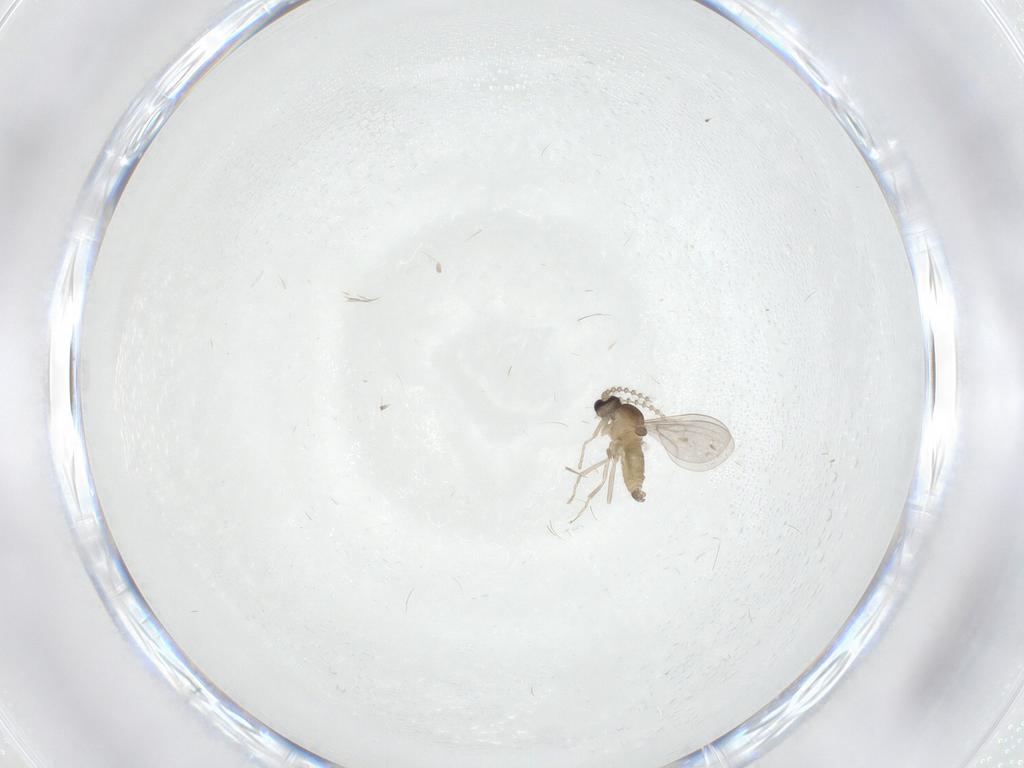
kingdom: Animalia
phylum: Arthropoda
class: Insecta
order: Diptera
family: Cecidomyiidae
